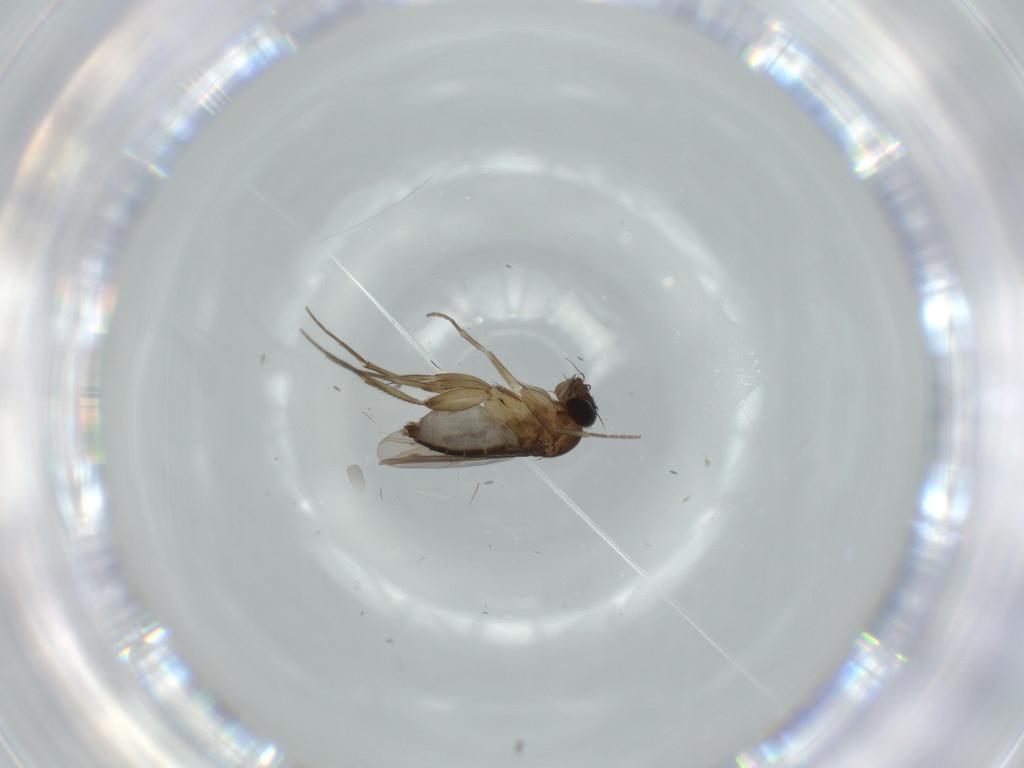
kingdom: Animalia
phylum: Arthropoda
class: Insecta
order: Diptera
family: Phoridae
